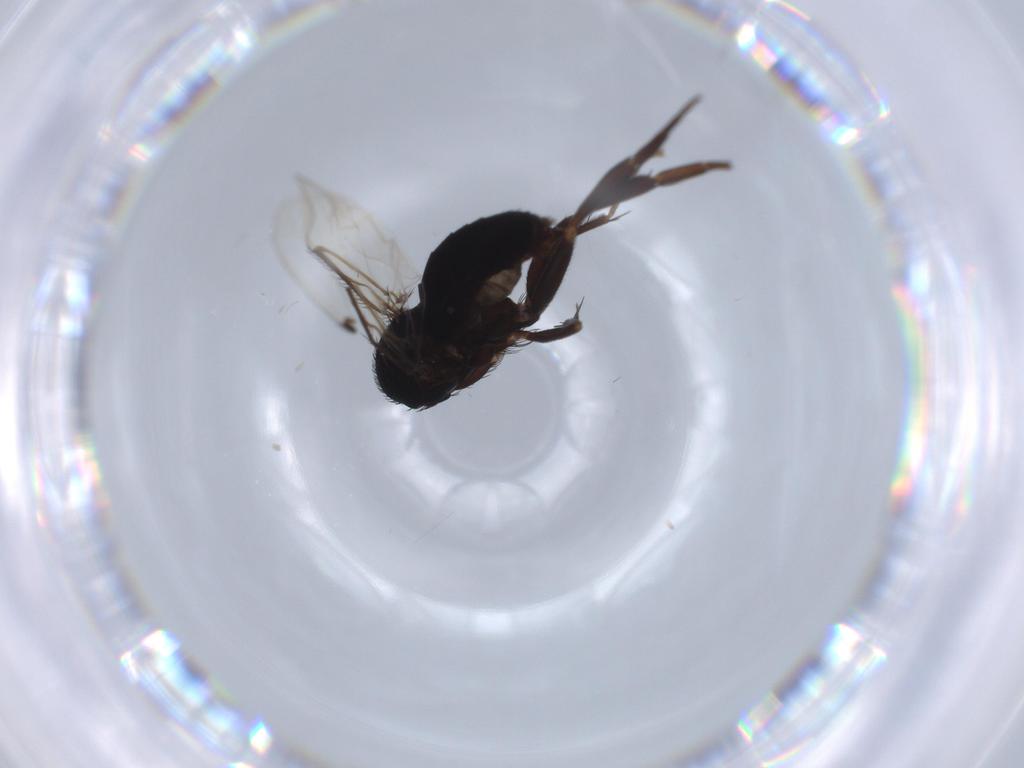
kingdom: Animalia
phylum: Arthropoda
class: Insecta
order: Diptera
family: Phoridae
